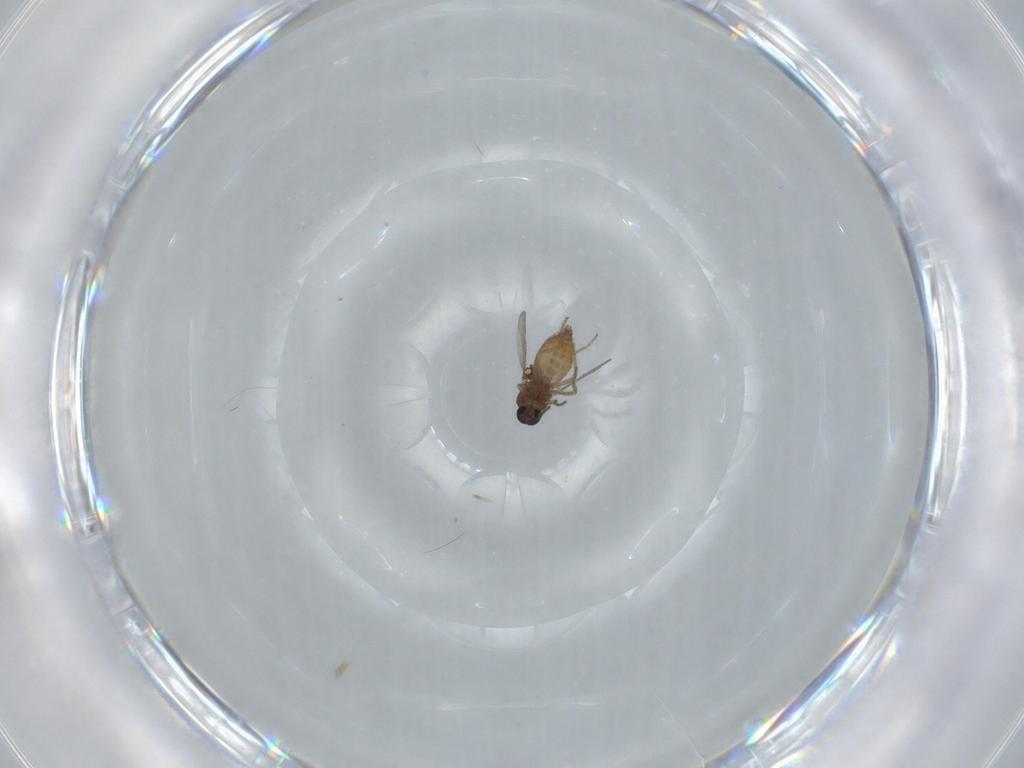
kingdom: Animalia
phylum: Arthropoda
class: Insecta
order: Diptera
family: Ceratopogonidae
